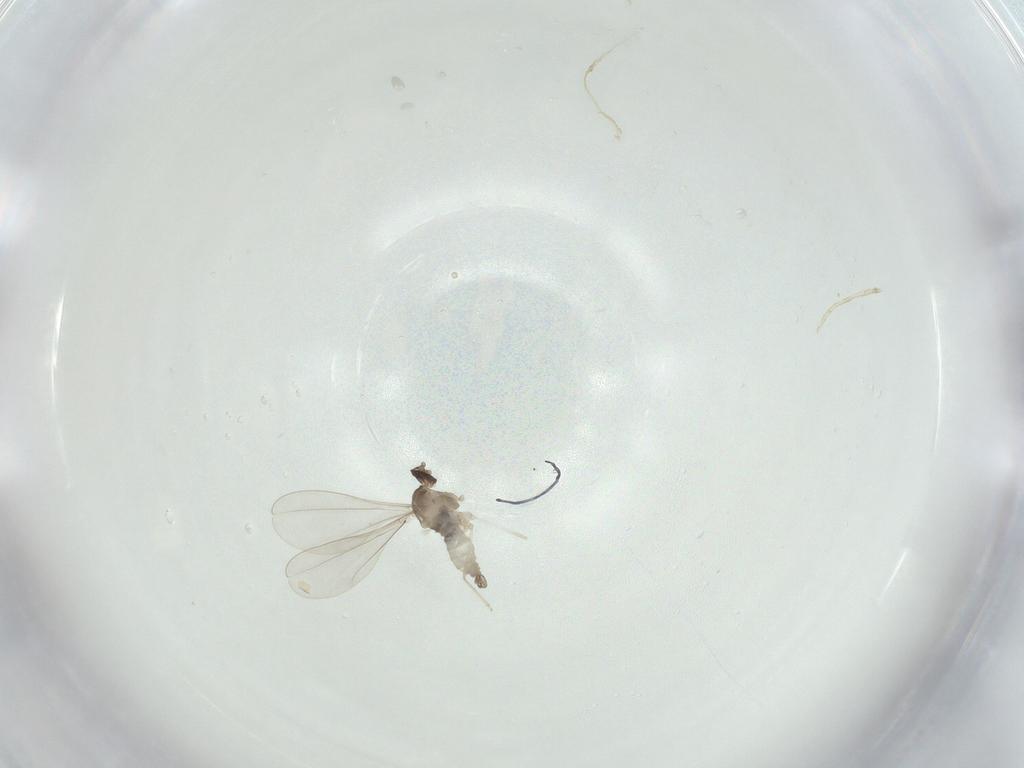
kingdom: Animalia
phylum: Arthropoda
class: Insecta
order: Diptera
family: Cecidomyiidae
